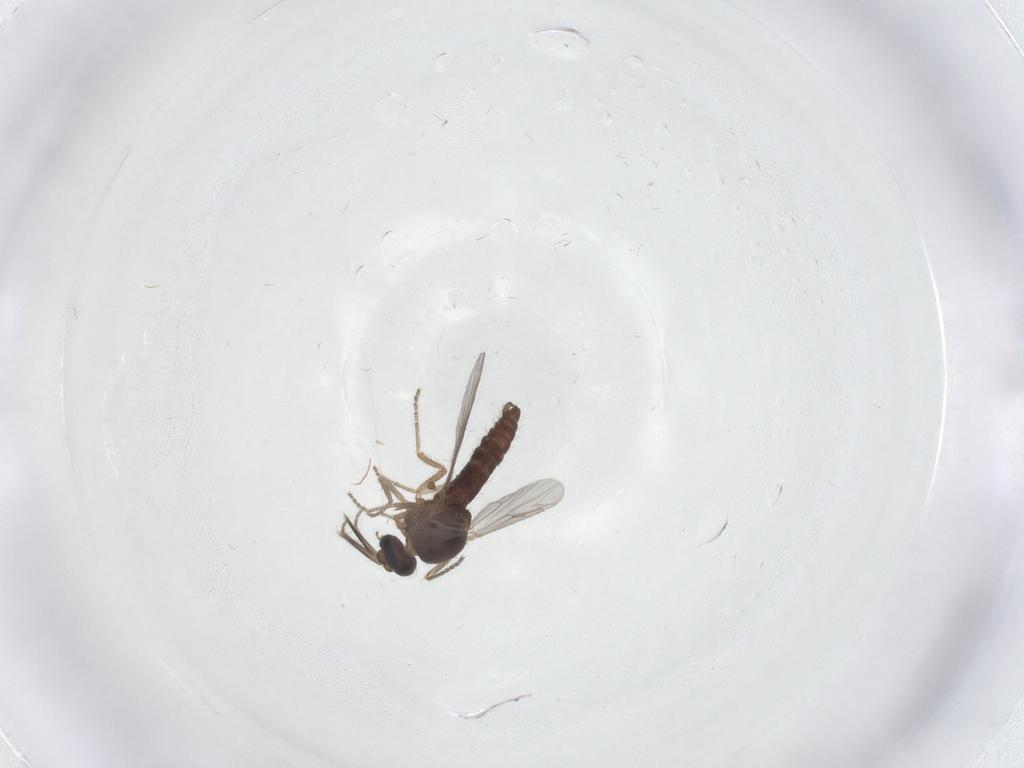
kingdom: Animalia
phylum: Arthropoda
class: Insecta
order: Diptera
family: Ceratopogonidae
